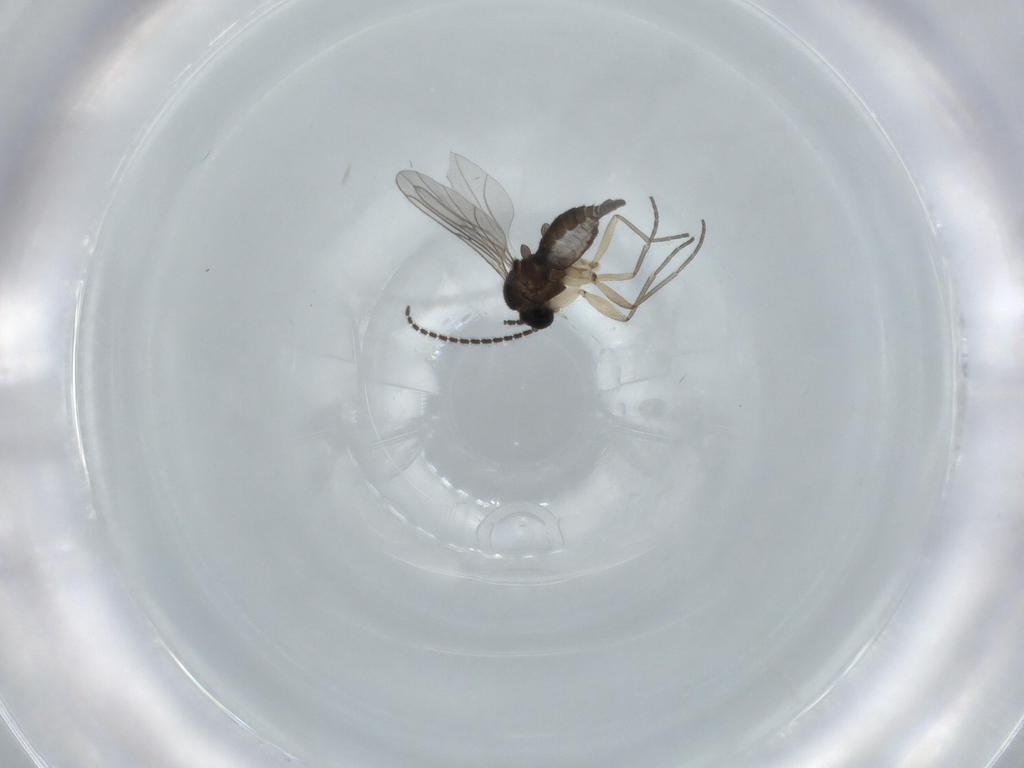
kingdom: Animalia
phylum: Arthropoda
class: Insecta
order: Diptera
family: Sciaridae
